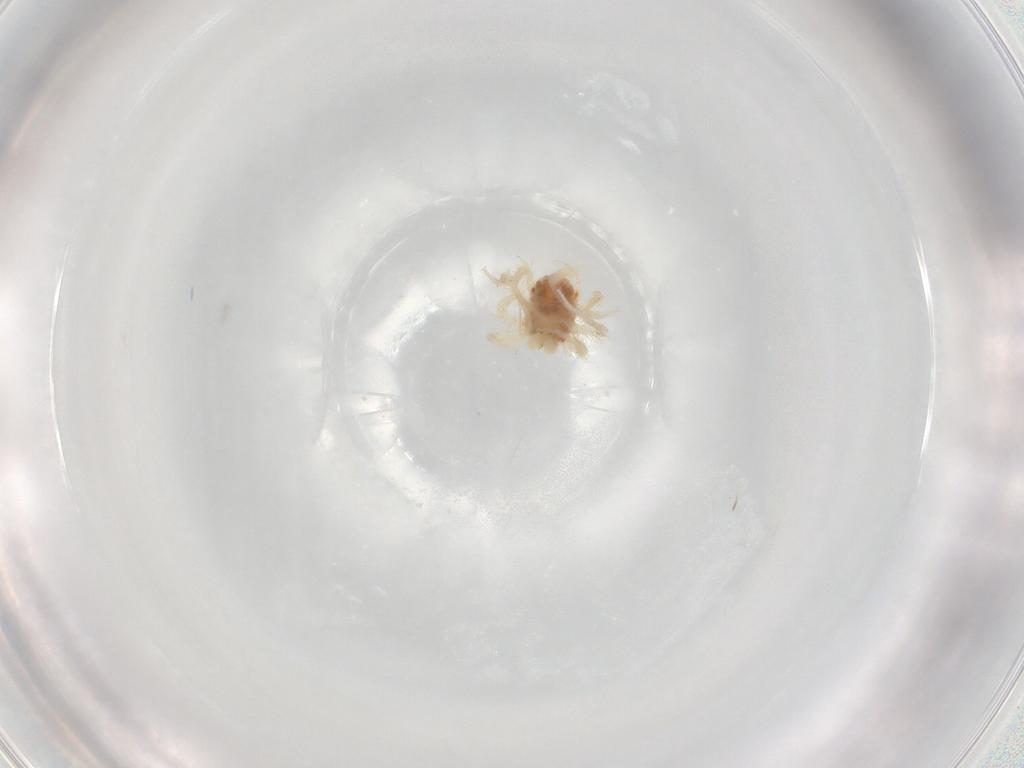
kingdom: Animalia
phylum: Arthropoda
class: Arachnida
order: Trombidiformes
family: Anystidae
